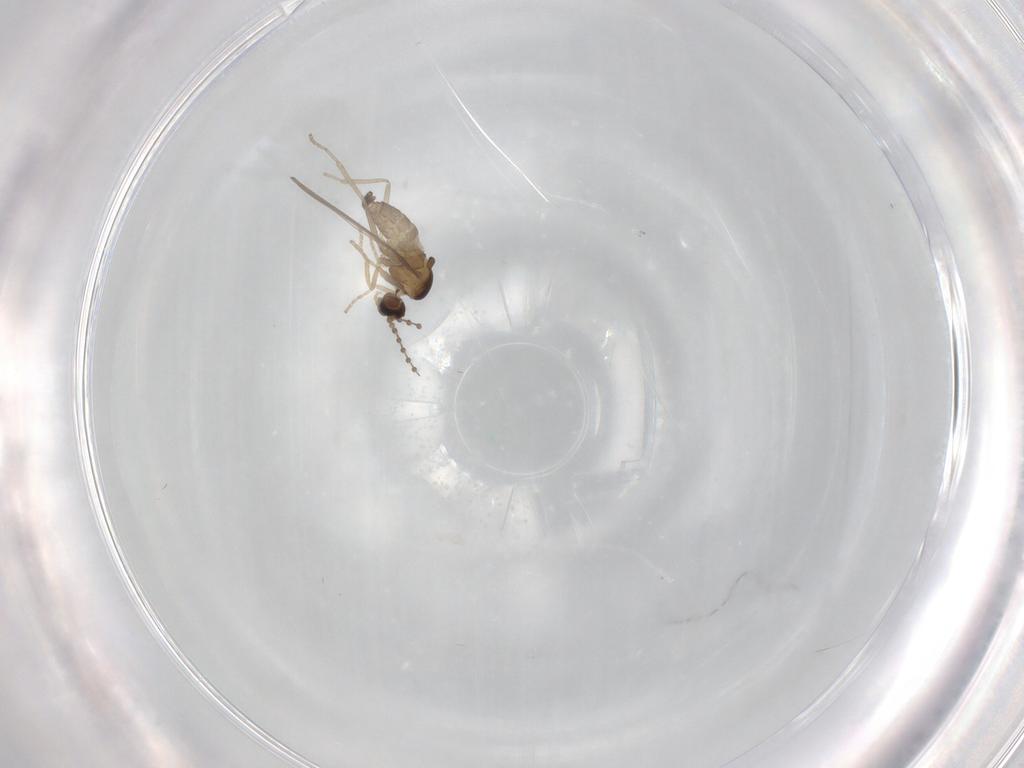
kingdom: Animalia
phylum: Arthropoda
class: Insecta
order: Diptera
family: Cecidomyiidae
